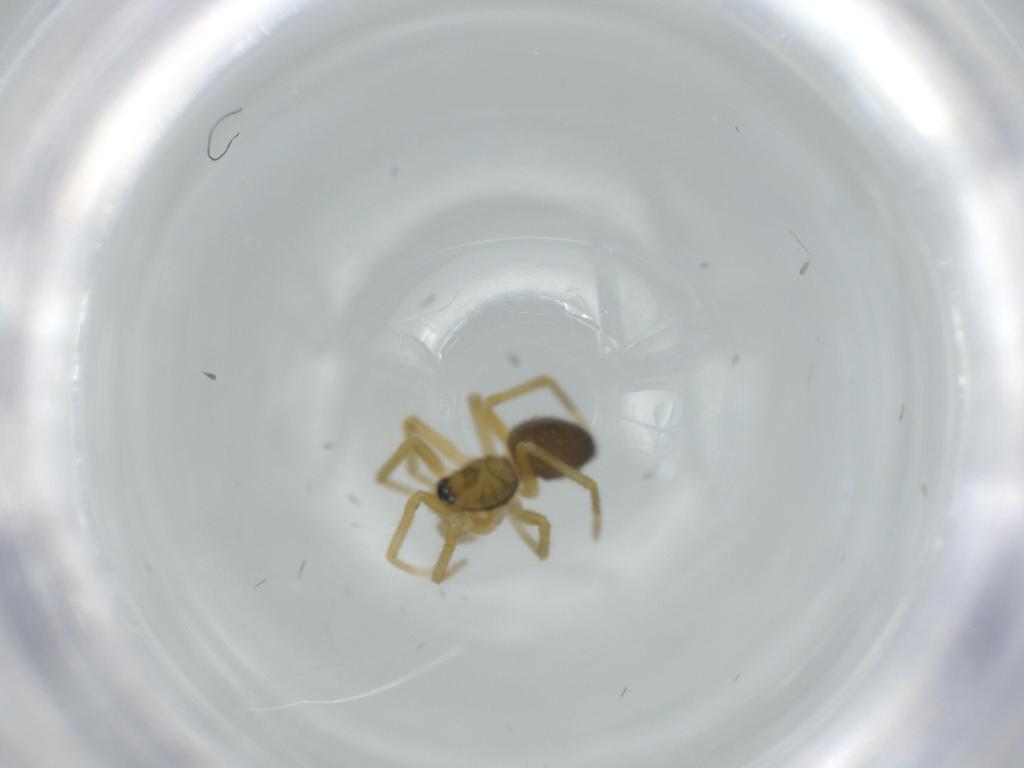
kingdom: Animalia
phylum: Arthropoda
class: Arachnida
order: Araneae
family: Linyphiidae
